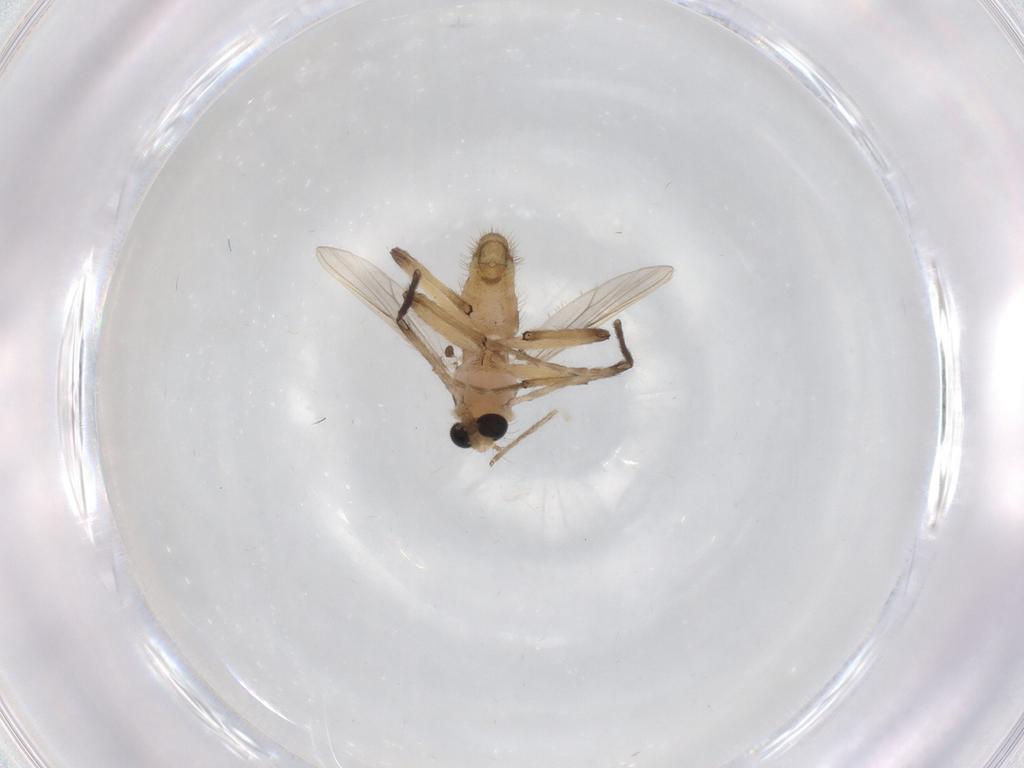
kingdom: Animalia
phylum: Arthropoda
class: Insecta
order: Diptera
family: Chironomidae
